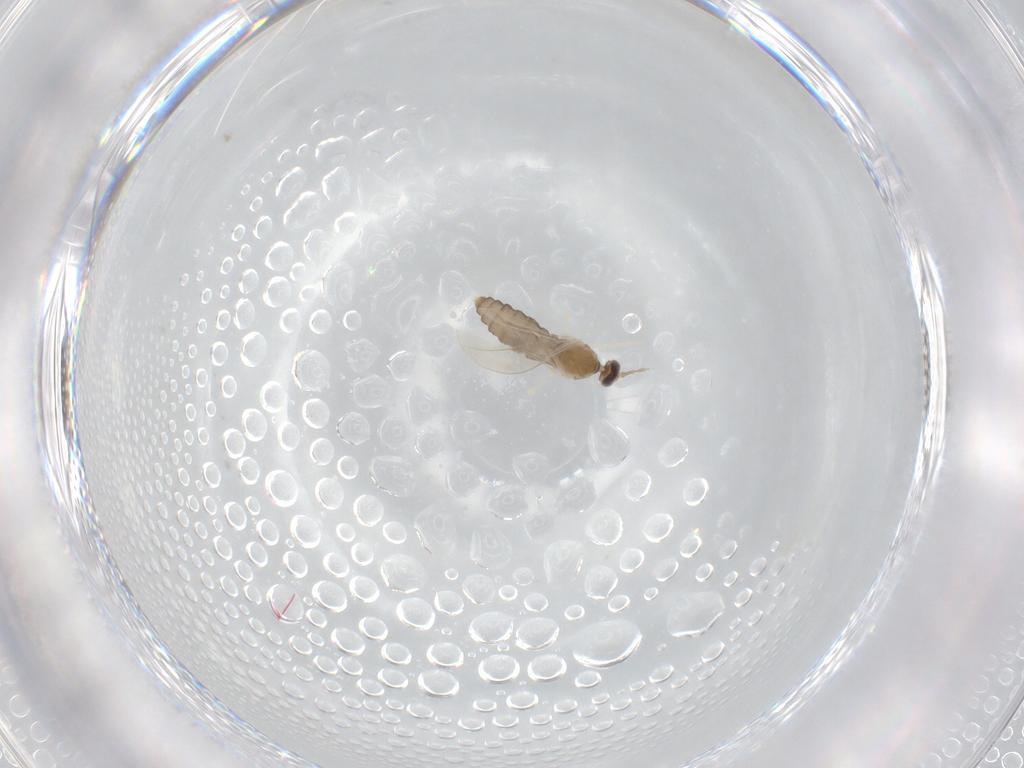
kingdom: Animalia
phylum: Arthropoda
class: Insecta
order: Diptera
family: Cecidomyiidae
